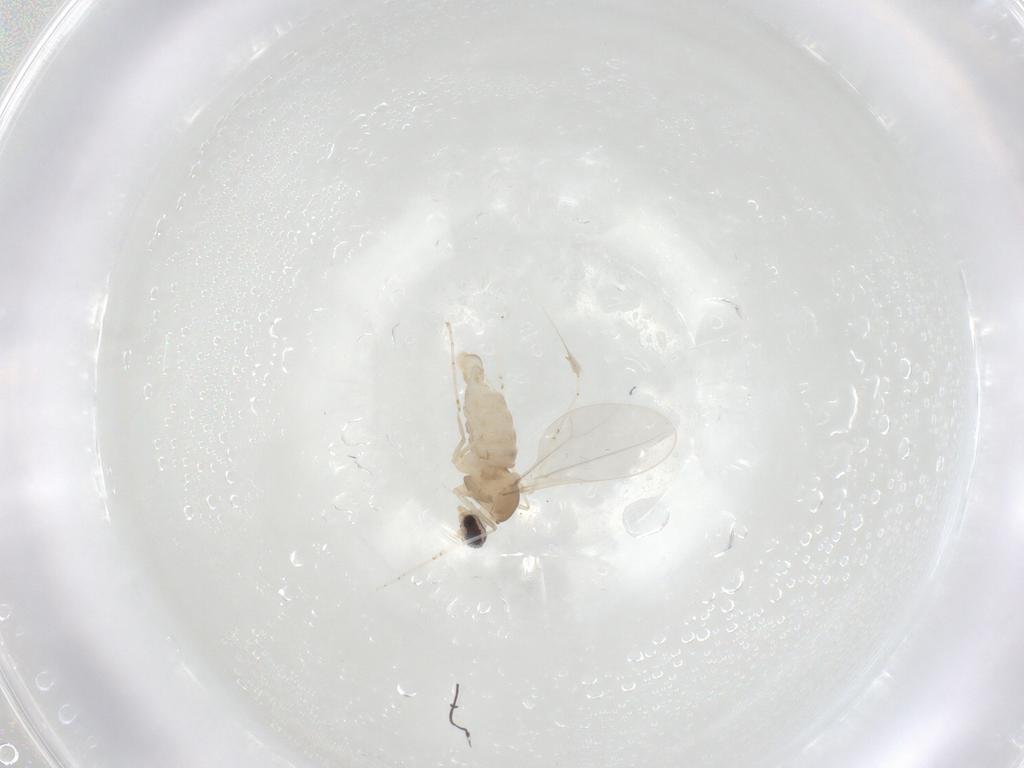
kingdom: Animalia
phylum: Arthropoda
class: Insecta
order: Diptera
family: Cecidomyiidae
